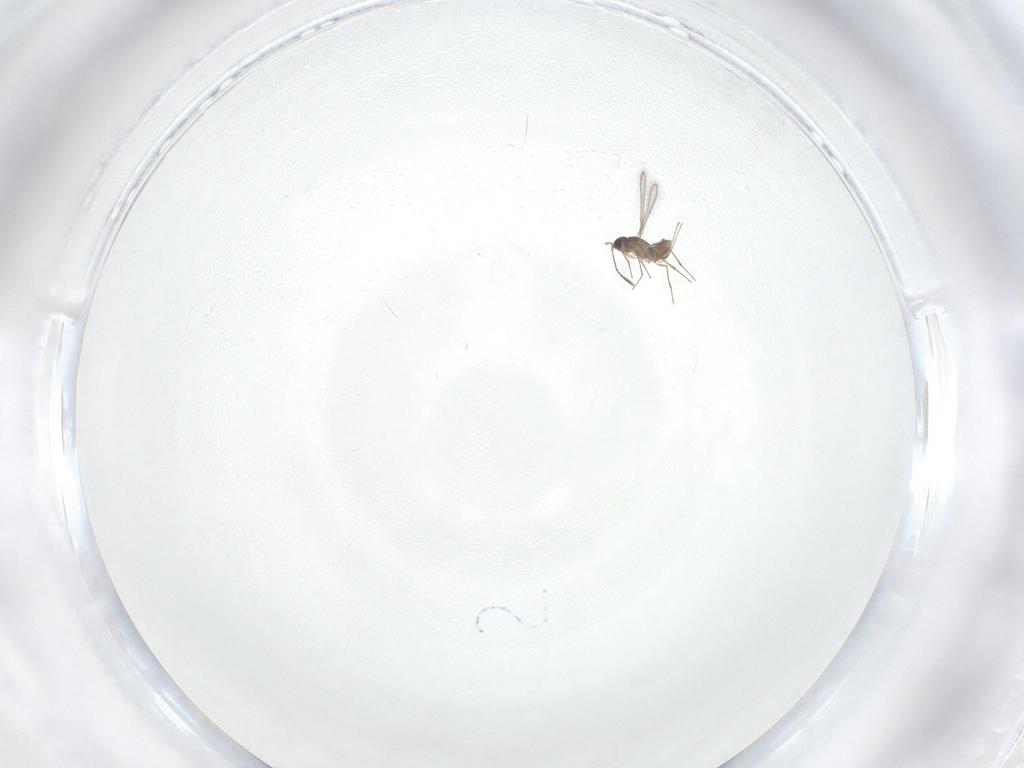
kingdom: Animalia
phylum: Arthropoda
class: Insecta
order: Hymenoptera
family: Mymaridae
